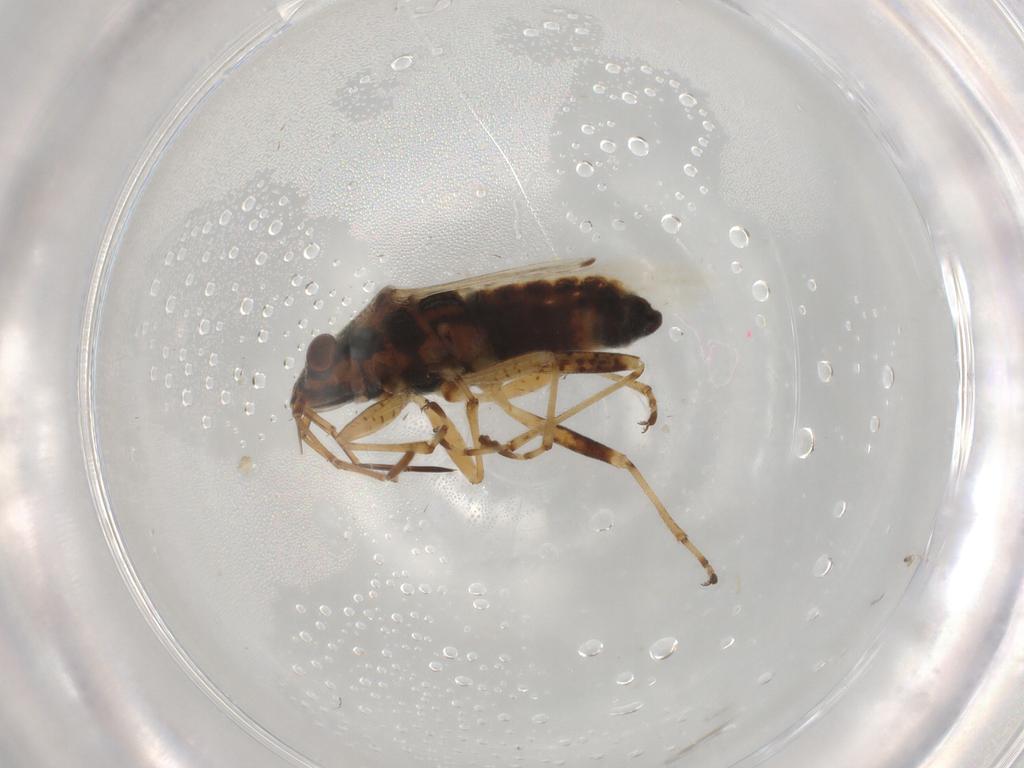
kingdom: Animalia
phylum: Arthropoda
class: Insecta
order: Hemiptera
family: Lygaeidae
